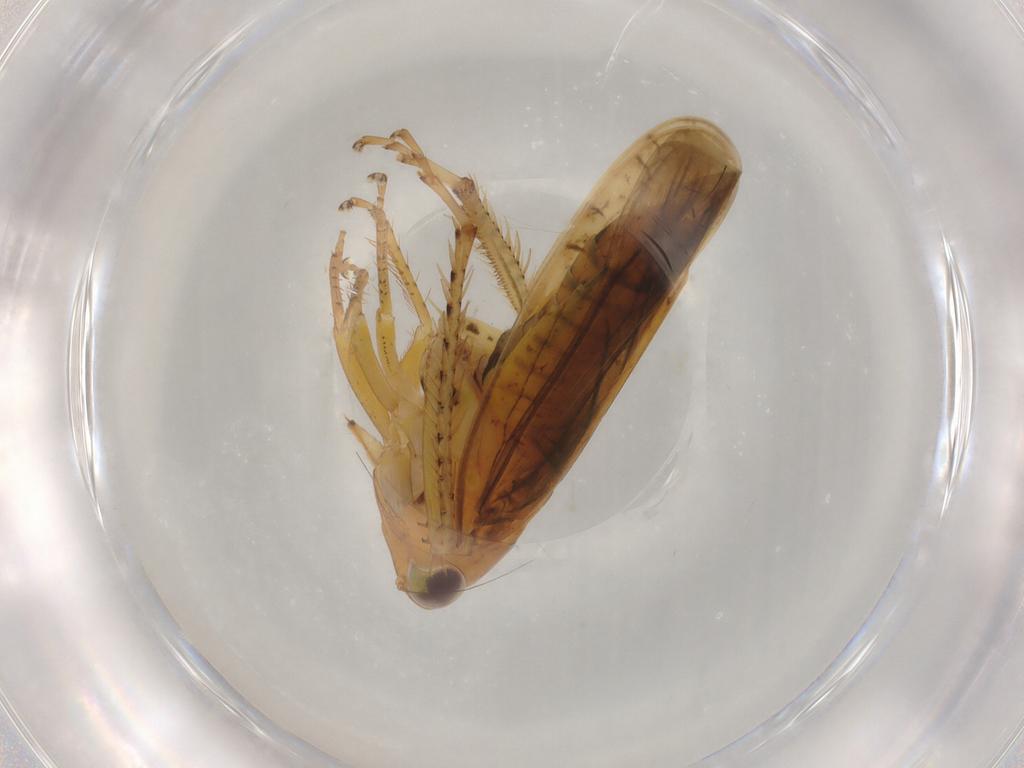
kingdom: Animalia
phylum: Arthropoda
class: Insecta
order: Hemiptera
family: Cicadellidae
